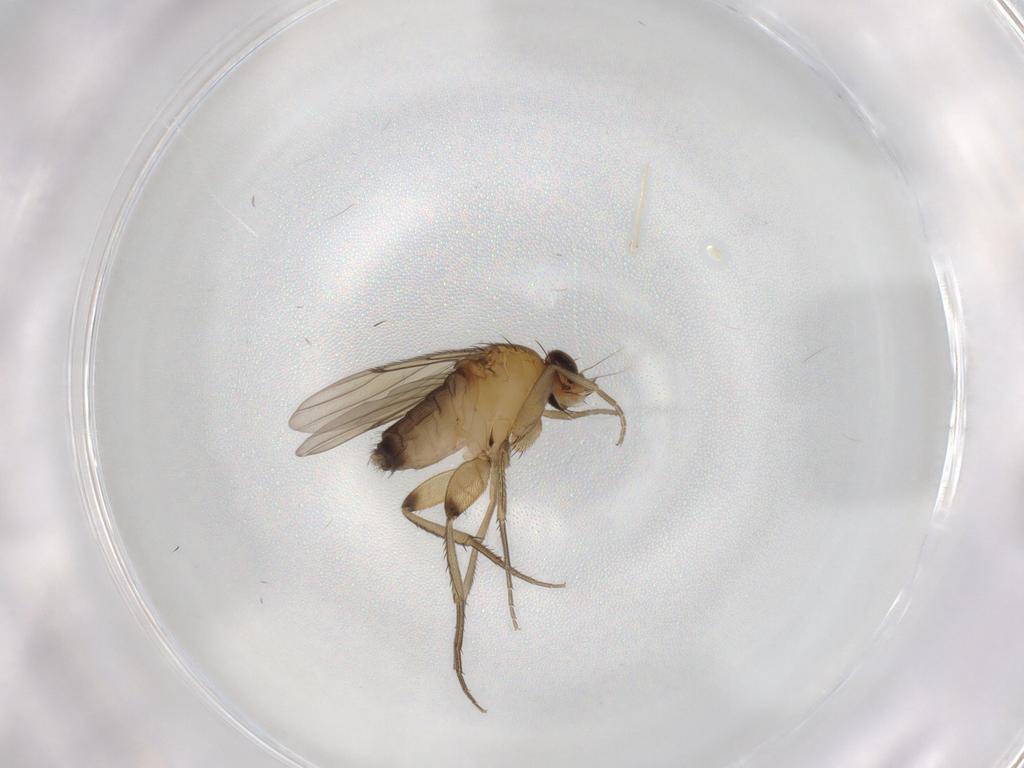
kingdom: Animalia
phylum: Arthropoda
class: Insecta
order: Diptera
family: Phoridae
